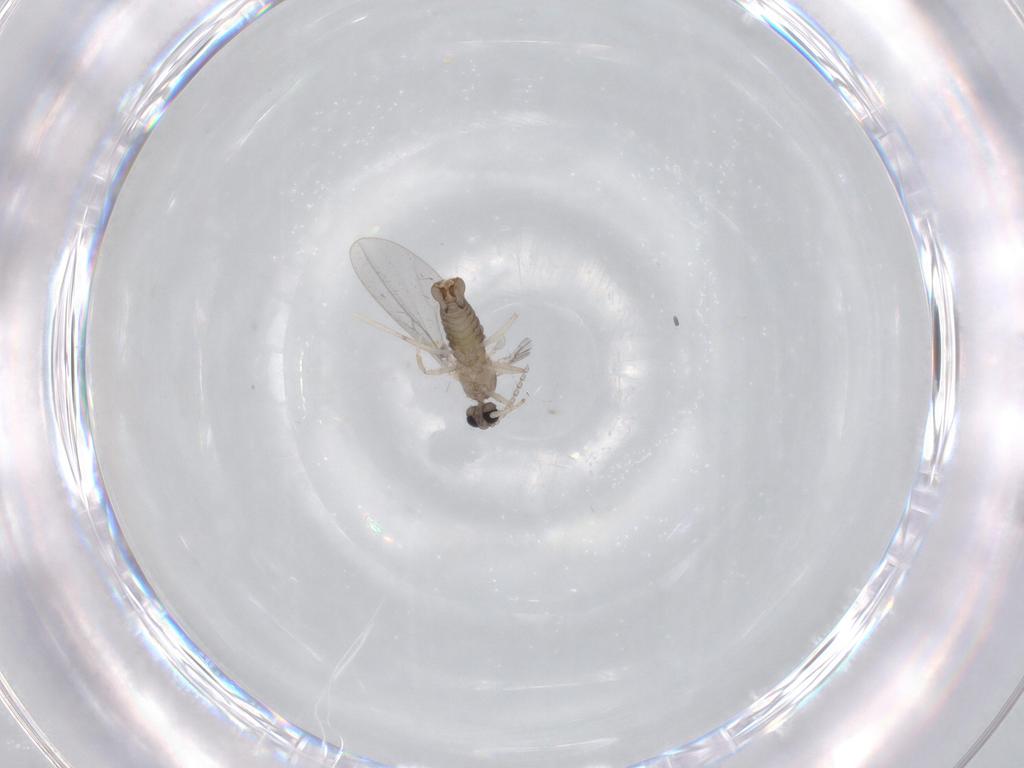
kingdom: Animalia
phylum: Arthropoda
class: Insecta
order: Diptera
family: Cecidomyiidae
